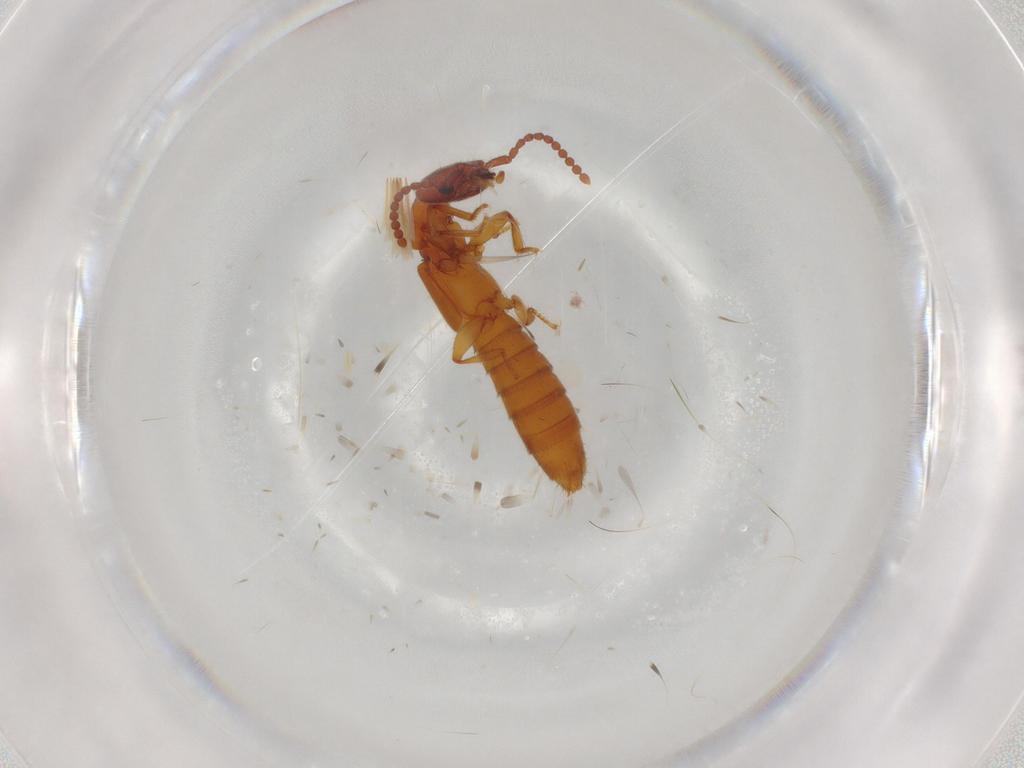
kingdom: Animalia
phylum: Arthropoda
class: Insecta
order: Coleoptera
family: Staphylinidae
